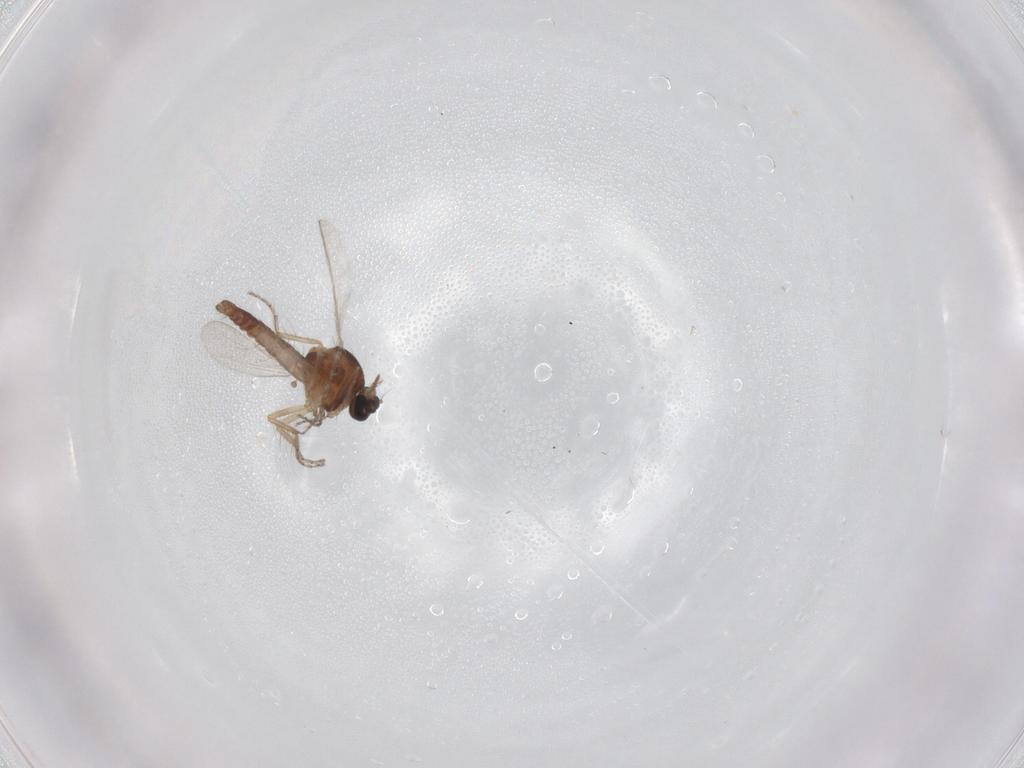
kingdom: Animalia
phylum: Arthropoda
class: Insecta
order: Diptera
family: Ceratopogonidae
